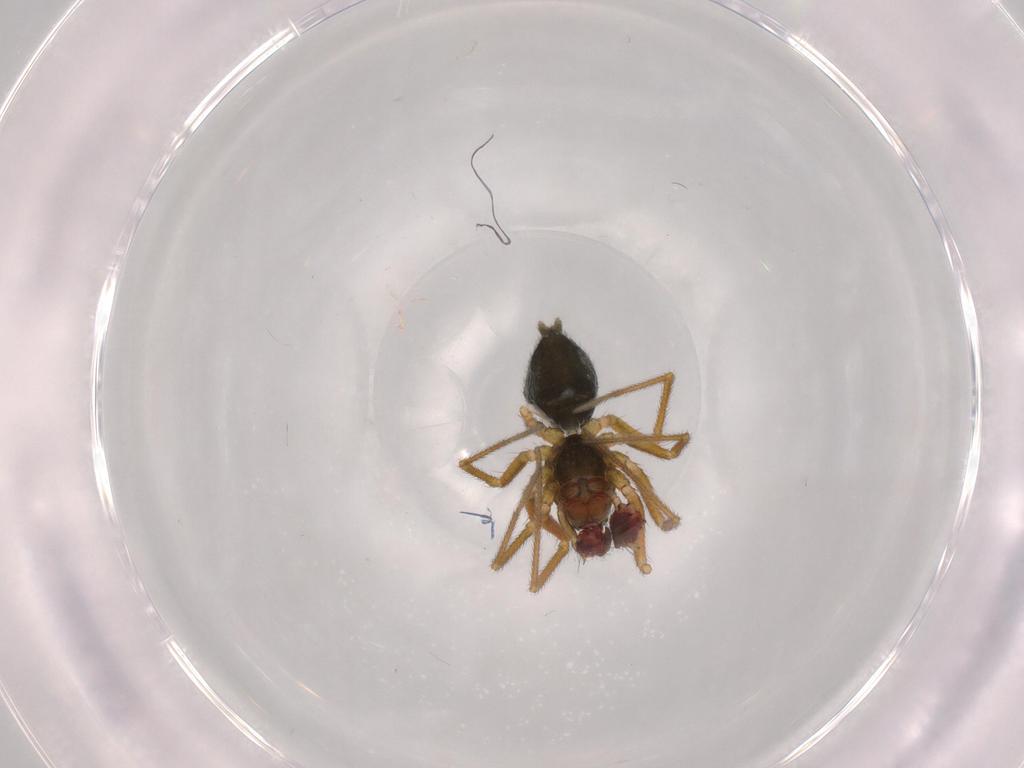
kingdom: Animalia
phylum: Arthropoda
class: Arachnida
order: Araneae
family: Linyphiidae
